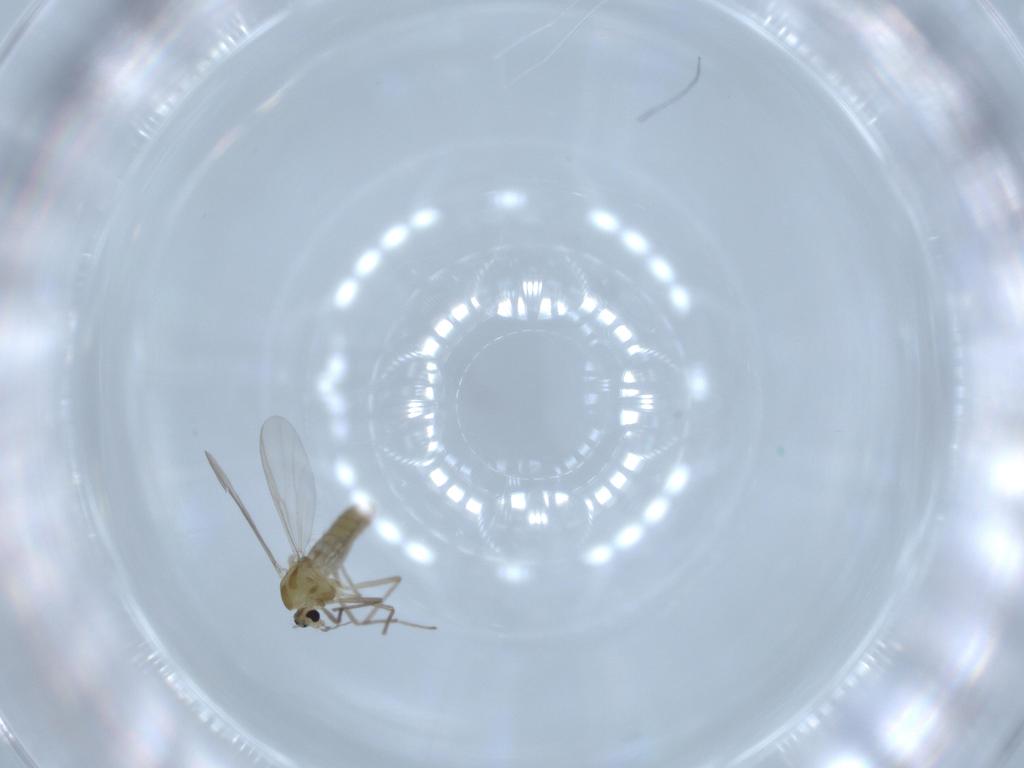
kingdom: Animalia
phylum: Arthropoda
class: Insecta
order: Diptera
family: Chironomidae
